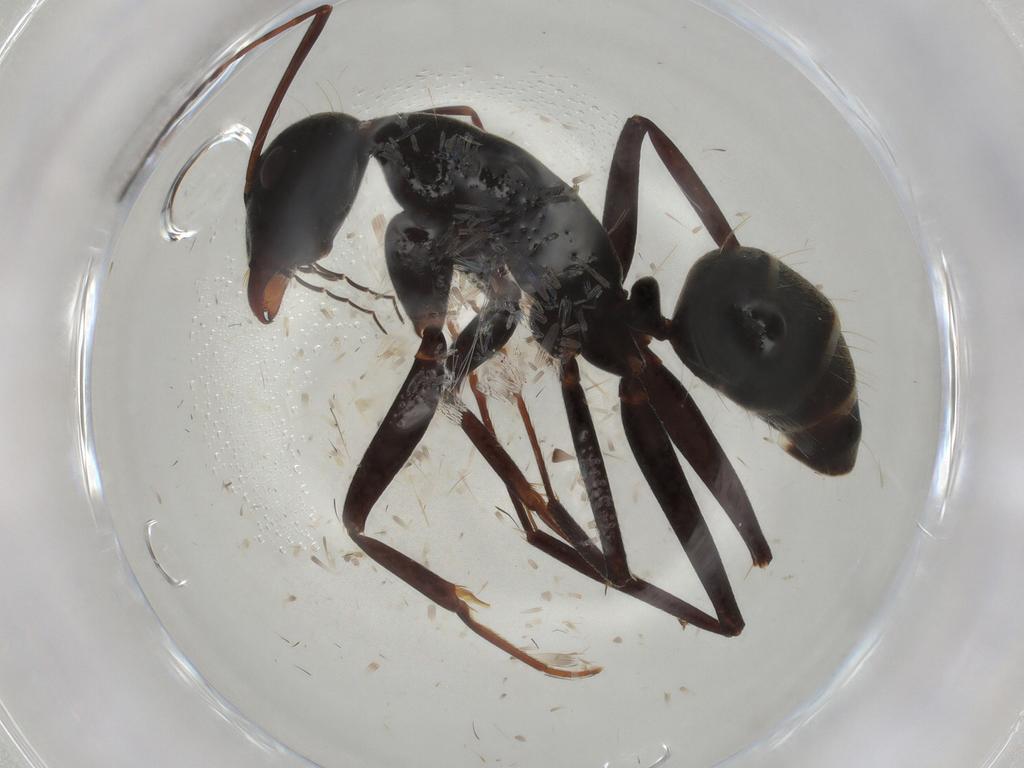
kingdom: Animalia
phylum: Arthropoda
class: Insecta
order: Hymenoptera
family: Formicidae
